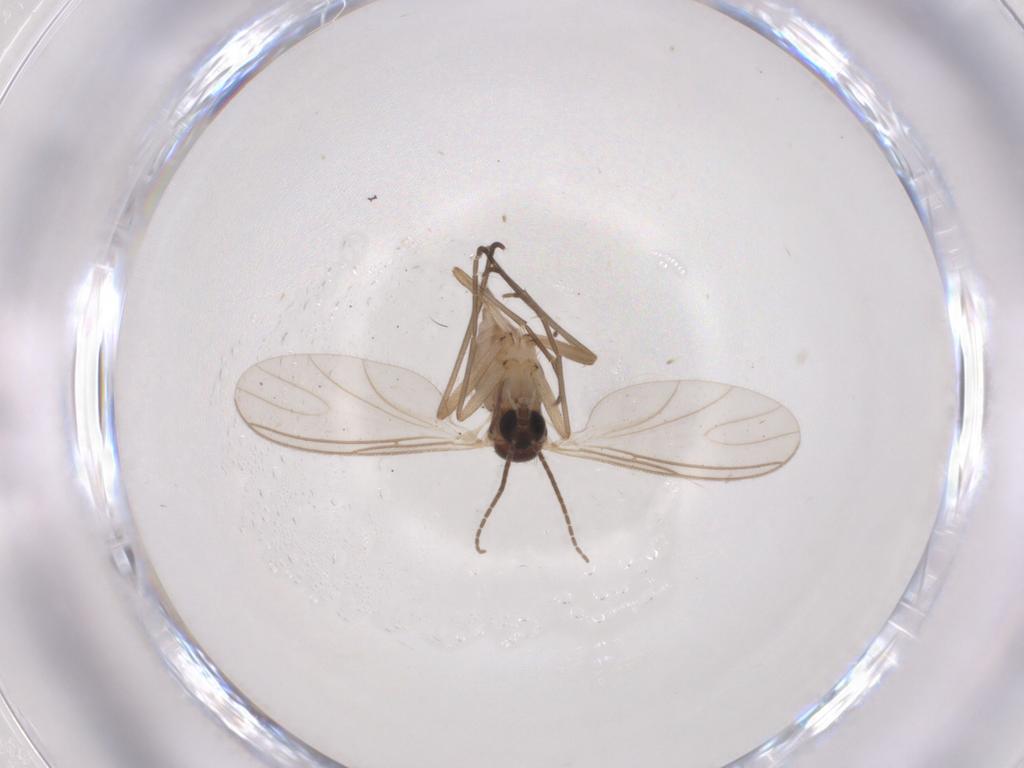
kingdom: Animalia
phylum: Arthropoda
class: Insecta
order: Diptera
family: Sciaridae
